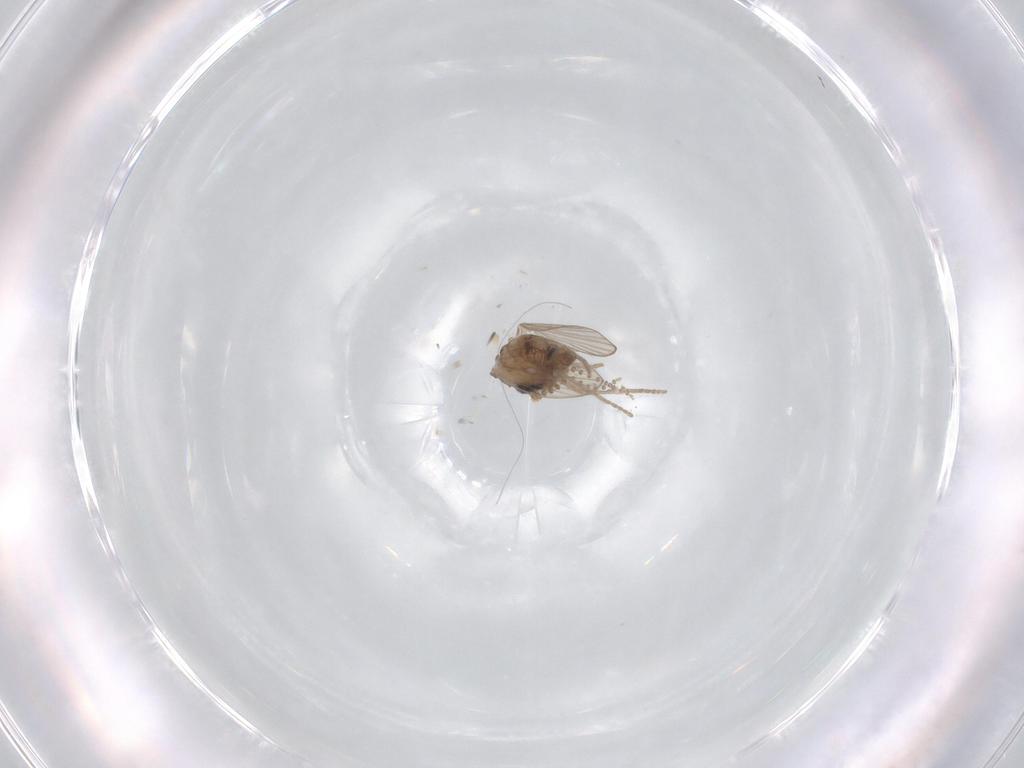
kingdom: Animalia
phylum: Arthropoda
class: Insecta
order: Diptera
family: Psychodidae
